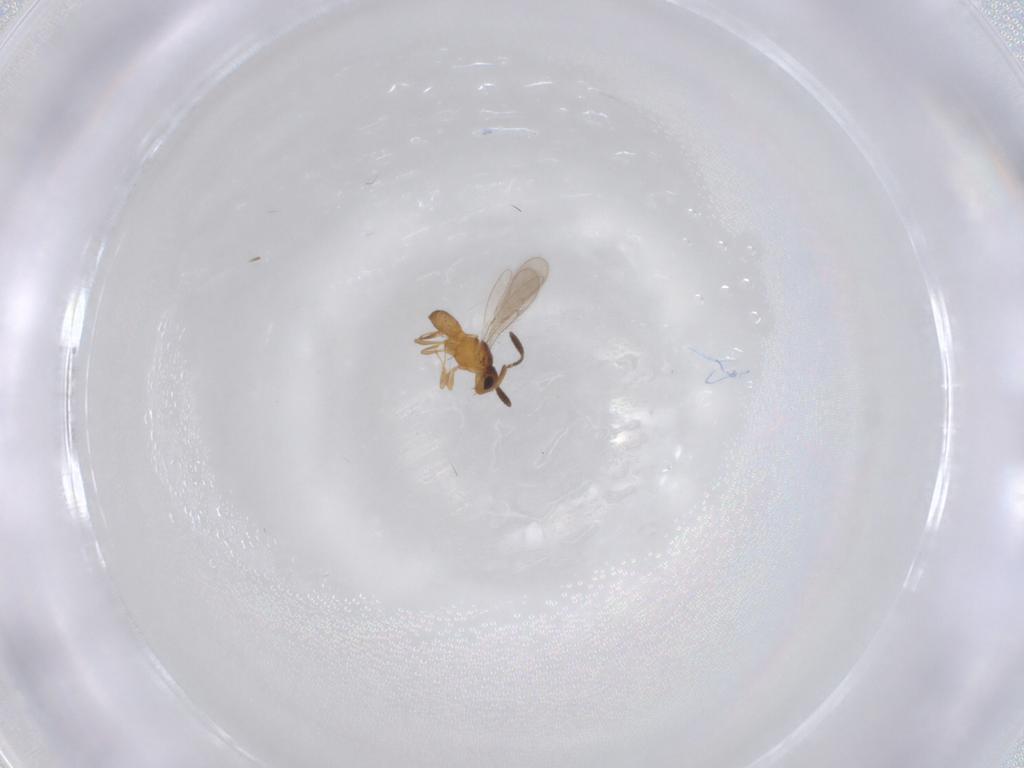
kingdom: Animalia
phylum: Arthropoda
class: Insecta
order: Hymenoptera
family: Scelionidae
